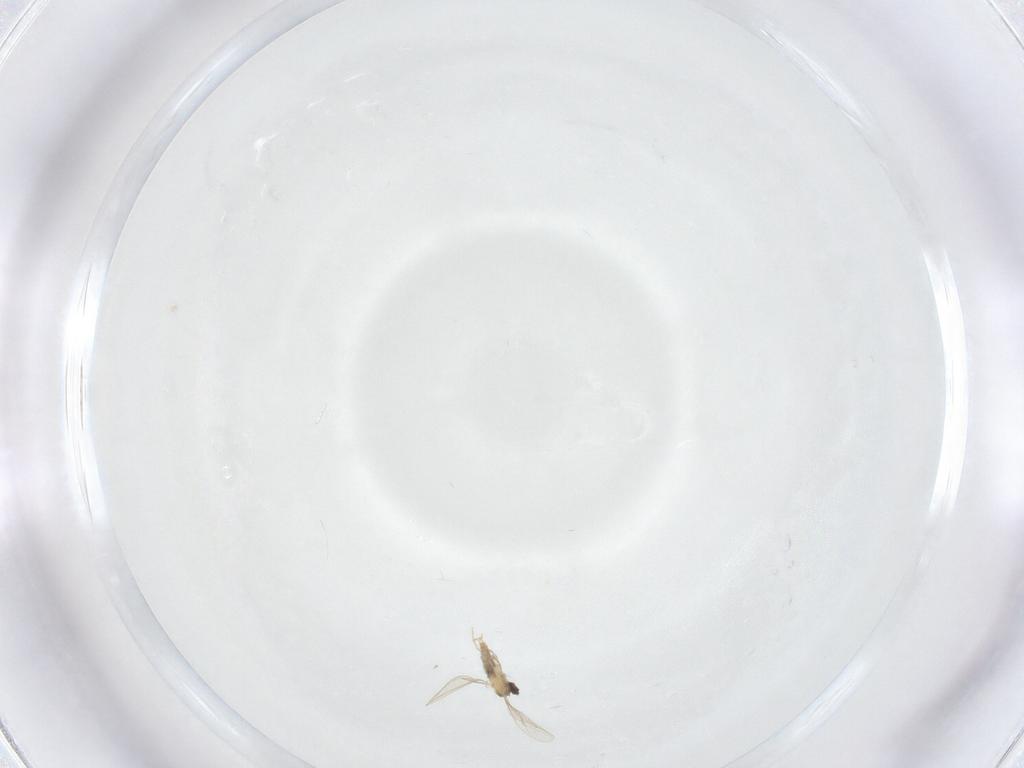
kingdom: Animalia
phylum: Arthropoda
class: Insecta
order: Diptera
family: Cecidomyiidae
